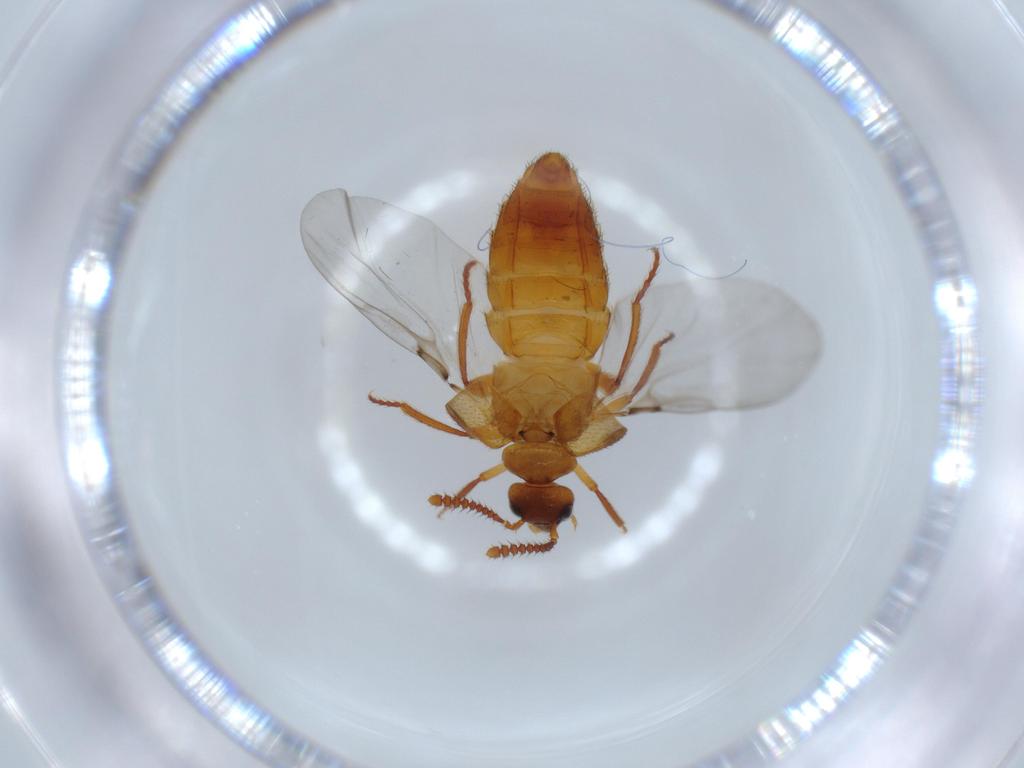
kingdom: Animalia
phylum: Arthropoda
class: Insecta
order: Coleoptera
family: Staphylinidae
